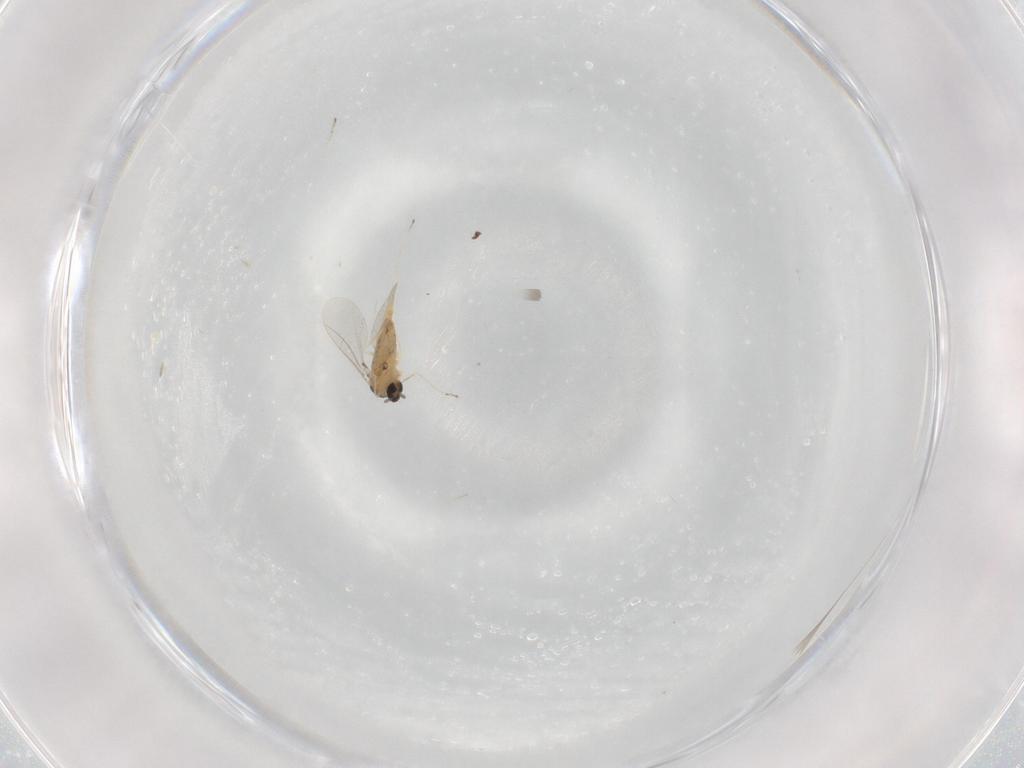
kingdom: Animalia
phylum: Arthropoda
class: Insecta
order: Diptera
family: Cecidomyiidae
